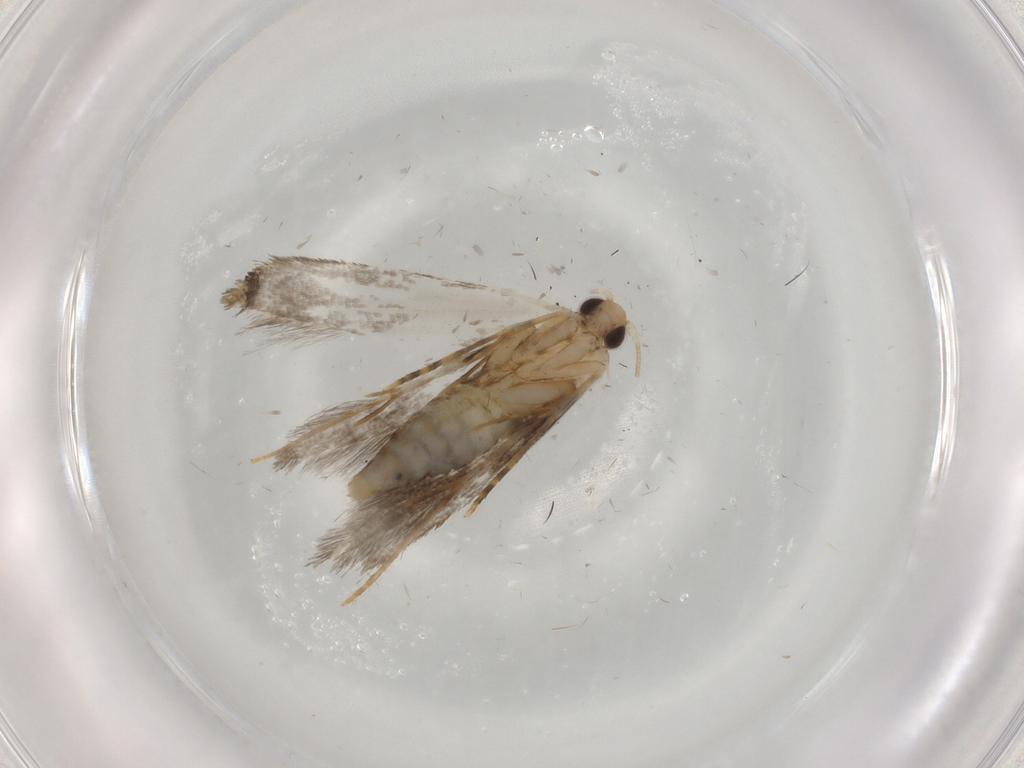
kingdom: Animalia
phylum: Arthropoda
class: Insecta
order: Lepidoptera
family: Tineidae
